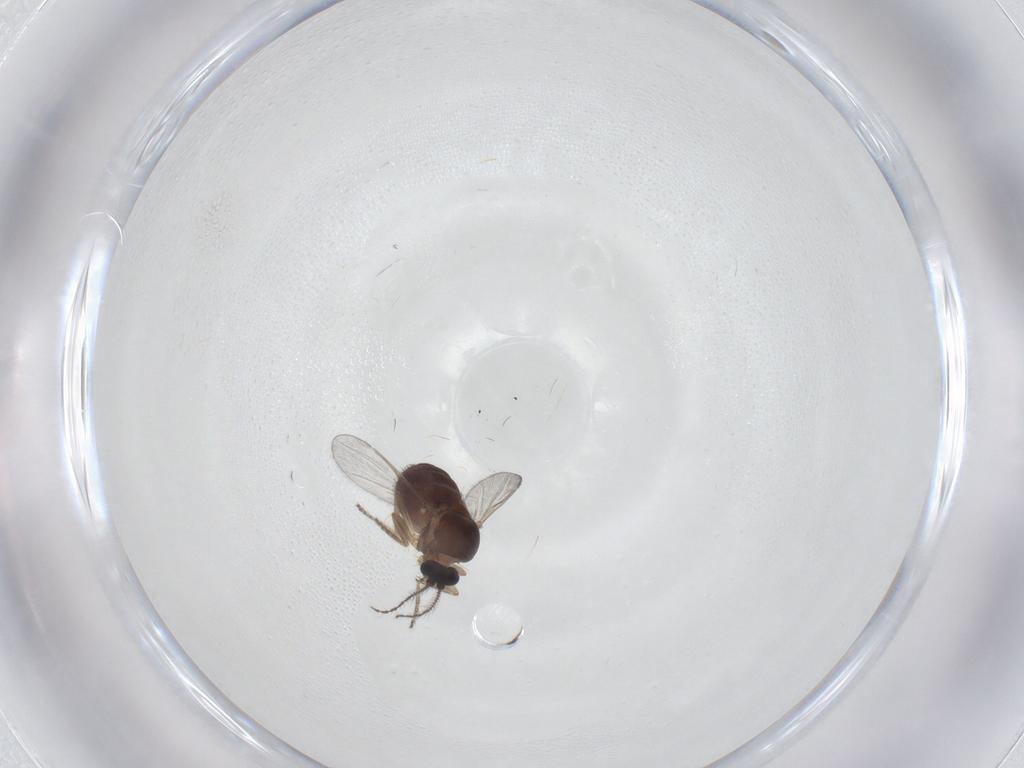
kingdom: Animalia
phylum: Arthropoda
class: Insecta
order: Diptera
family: Ceratopogonidae
